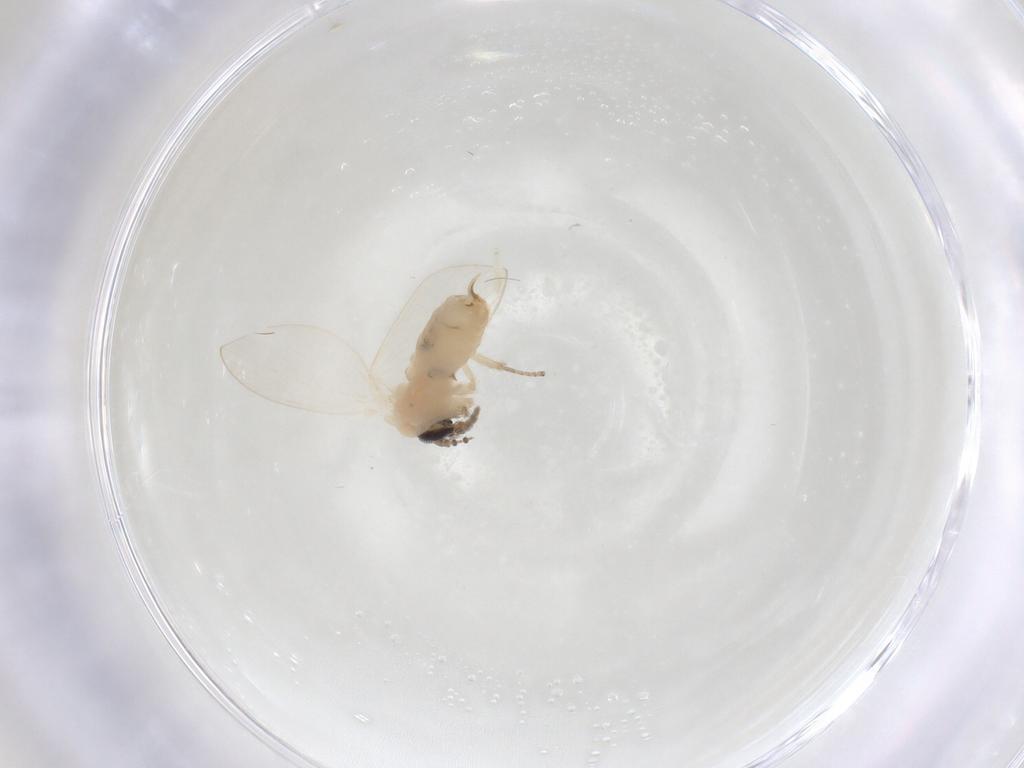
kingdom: Animalia
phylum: Arthropoda
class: Insecta
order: Diptera
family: Psychodidae
